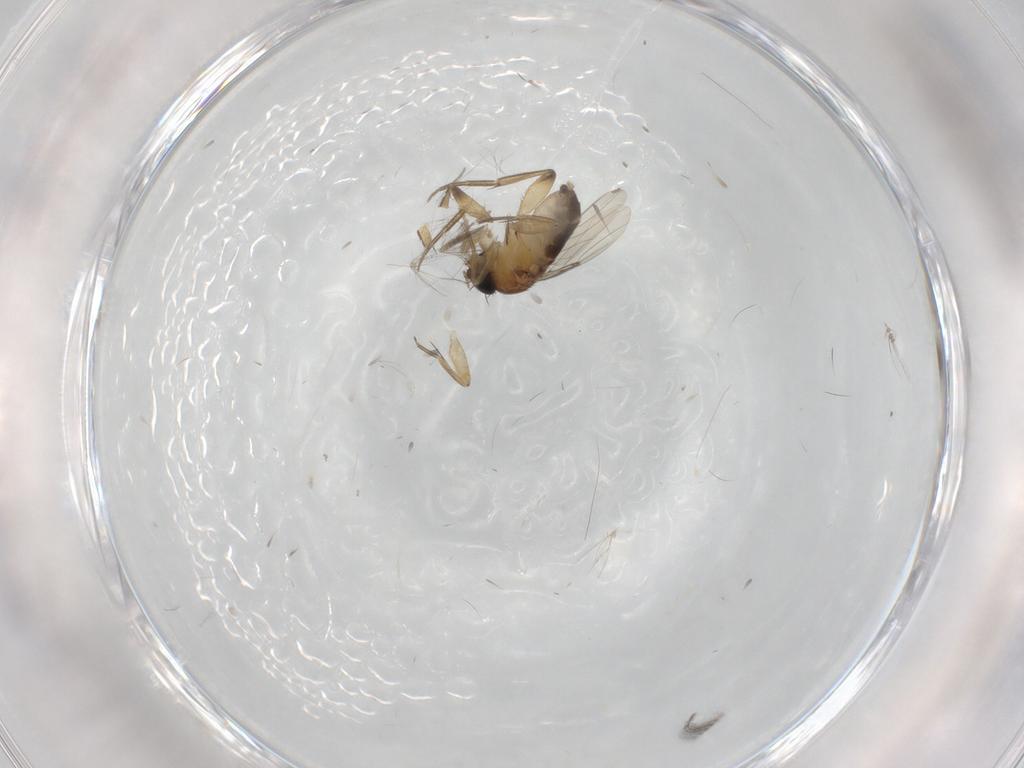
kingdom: Animalia
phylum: Arthropoda
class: Insecta
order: Diptera
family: Phoridae
